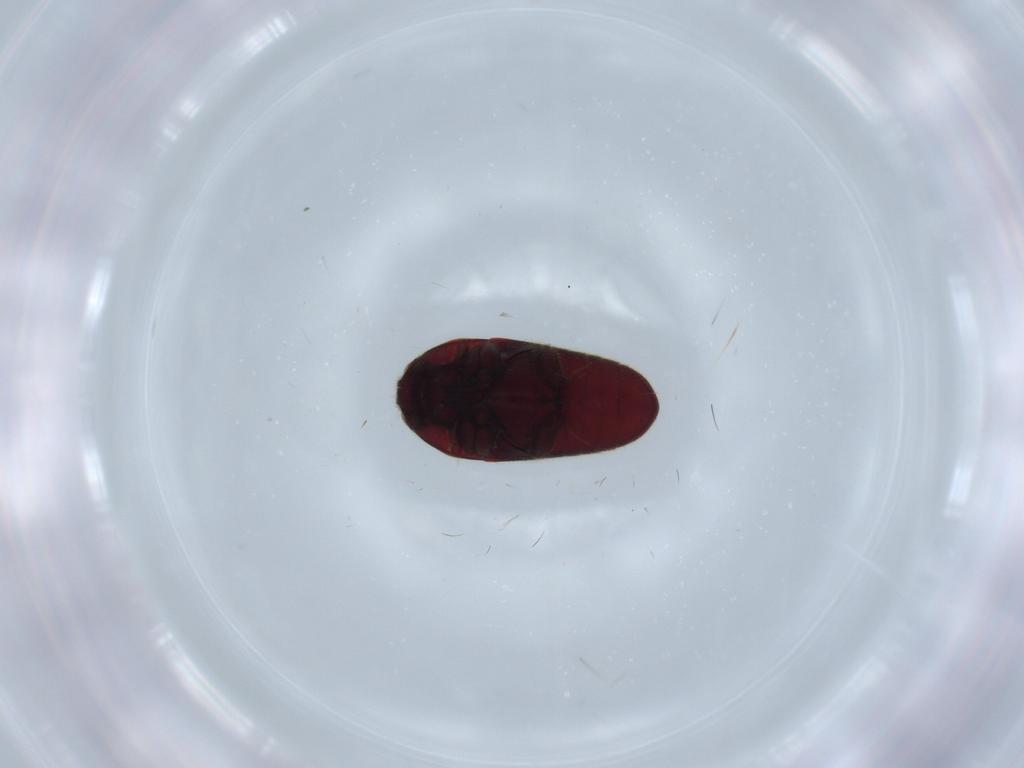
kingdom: Animalia
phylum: Arthropoda
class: Insecta
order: Coleoptera
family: Throscidae
